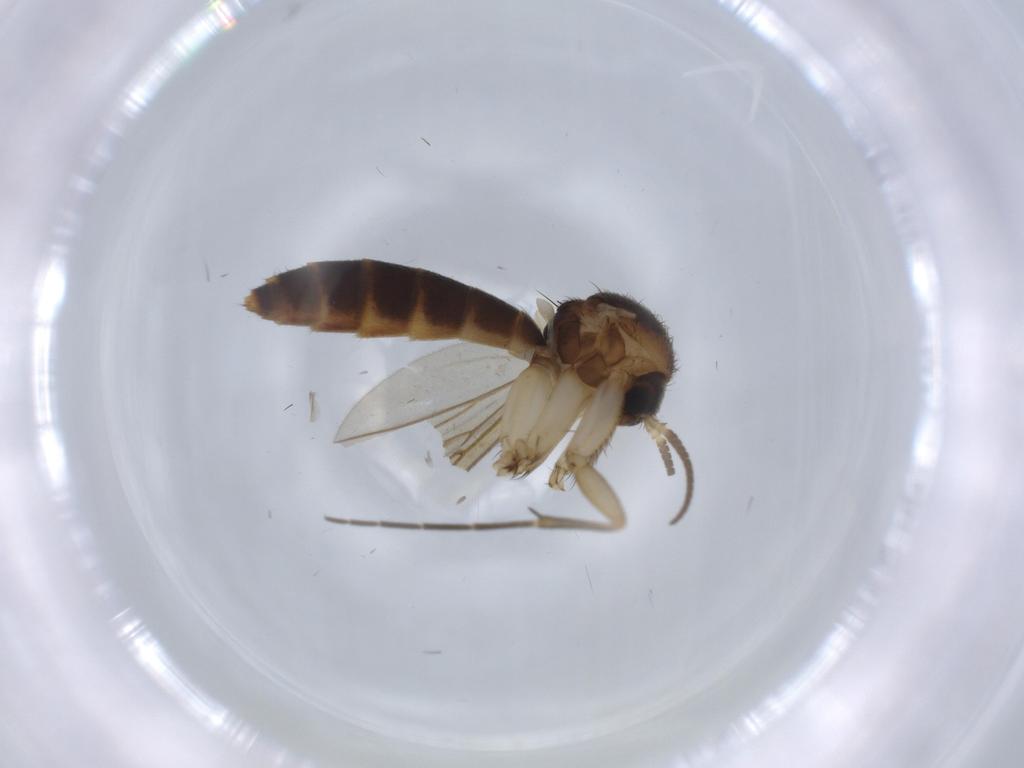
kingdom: Animalia
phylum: Arthropoda
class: Insecta
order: Diptera
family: Mycetophilidae
